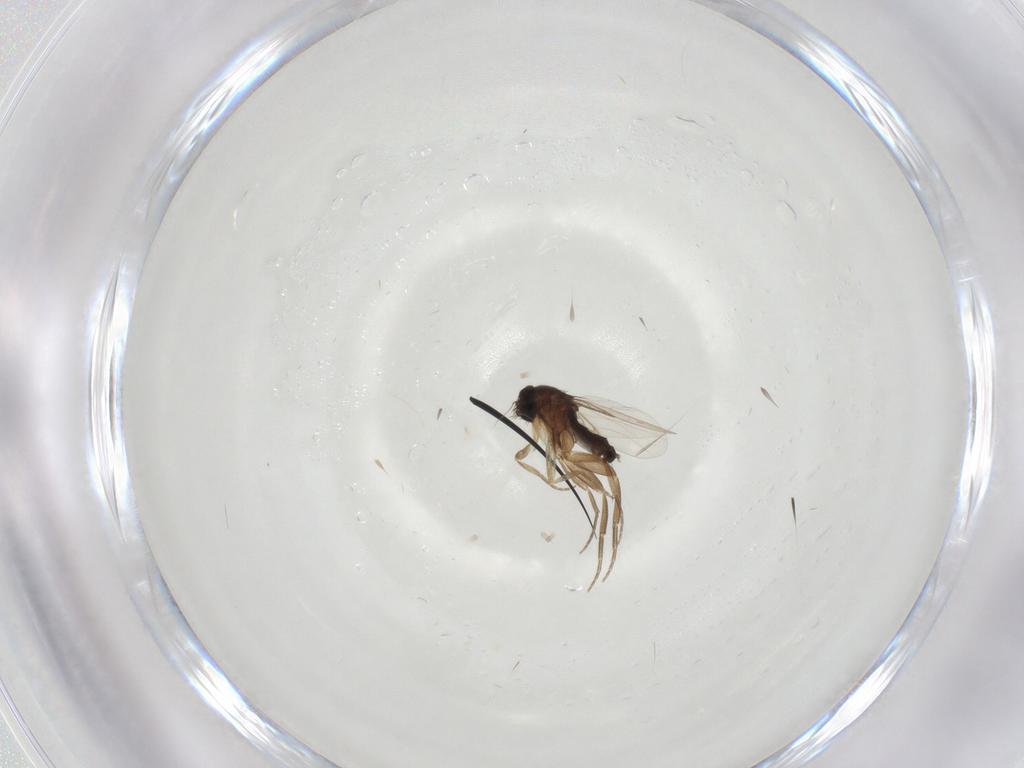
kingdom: Animalia
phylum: Arthropoda
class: Insecta
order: Diptera
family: Phoridae
